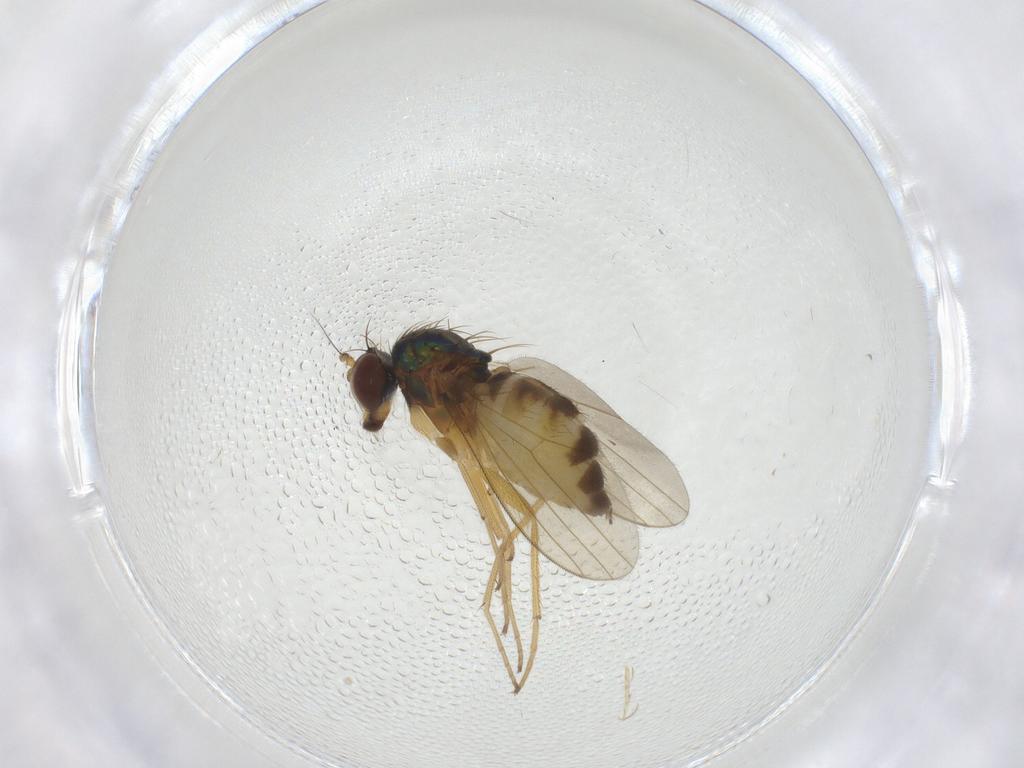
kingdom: Animalia
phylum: Arthropoda
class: Insecta
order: Diptera
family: Dolichopodidae
